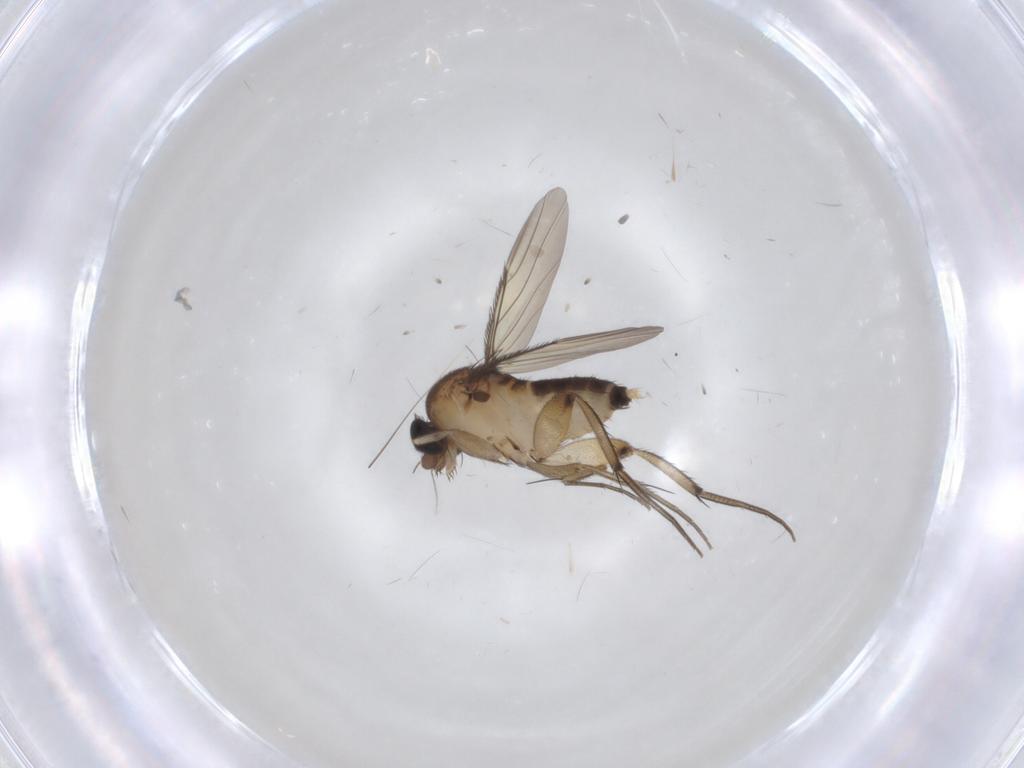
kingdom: Animalia
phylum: Arthropoda
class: Insecta
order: Diptera
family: Phoridae
